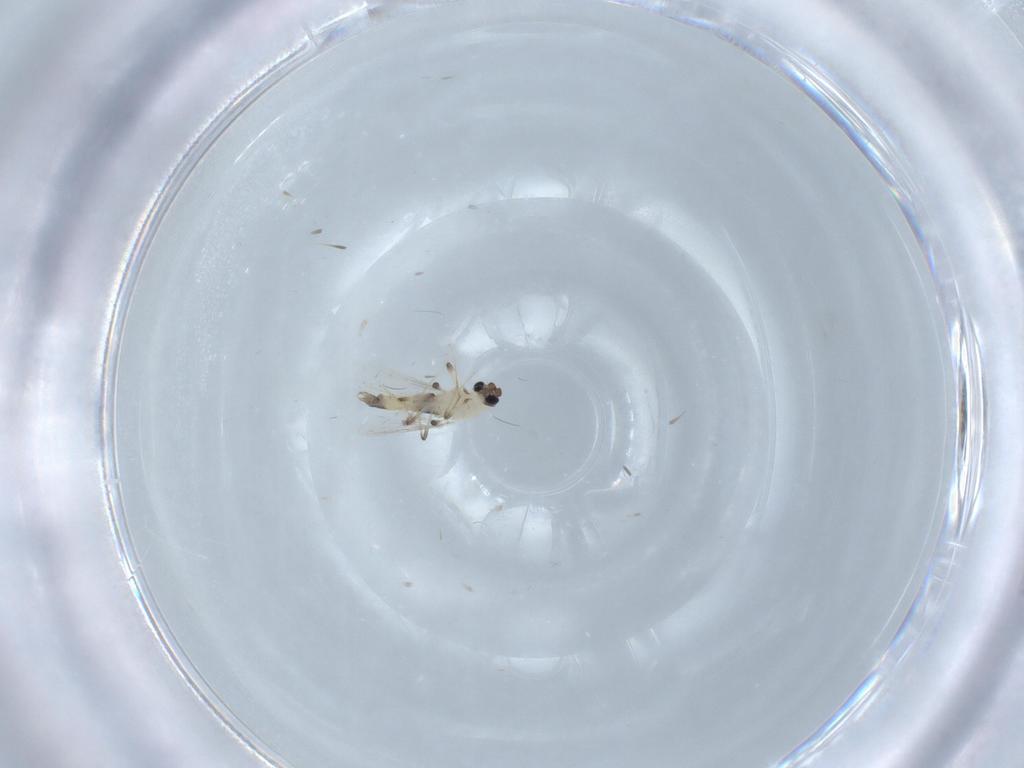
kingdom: Animalia
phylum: Arthropoda
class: Insecta
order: Diptera
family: Chironomidae
